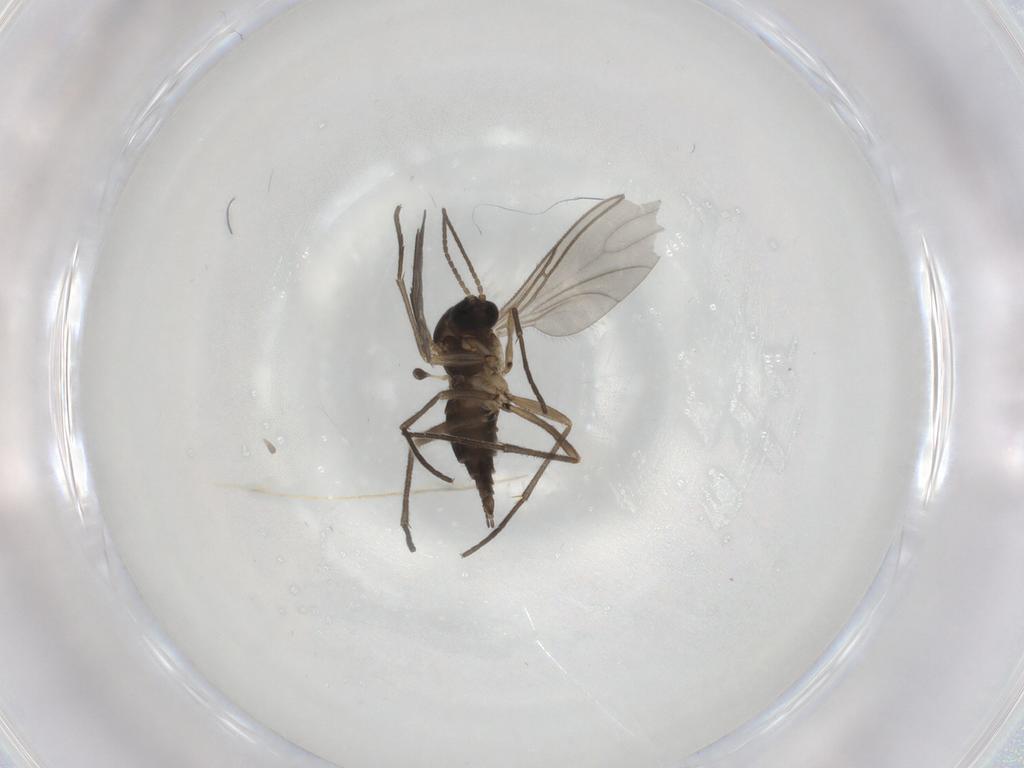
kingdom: Animalia
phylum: Arthropoda
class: Insecta
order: Diptera
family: Sciaridae
